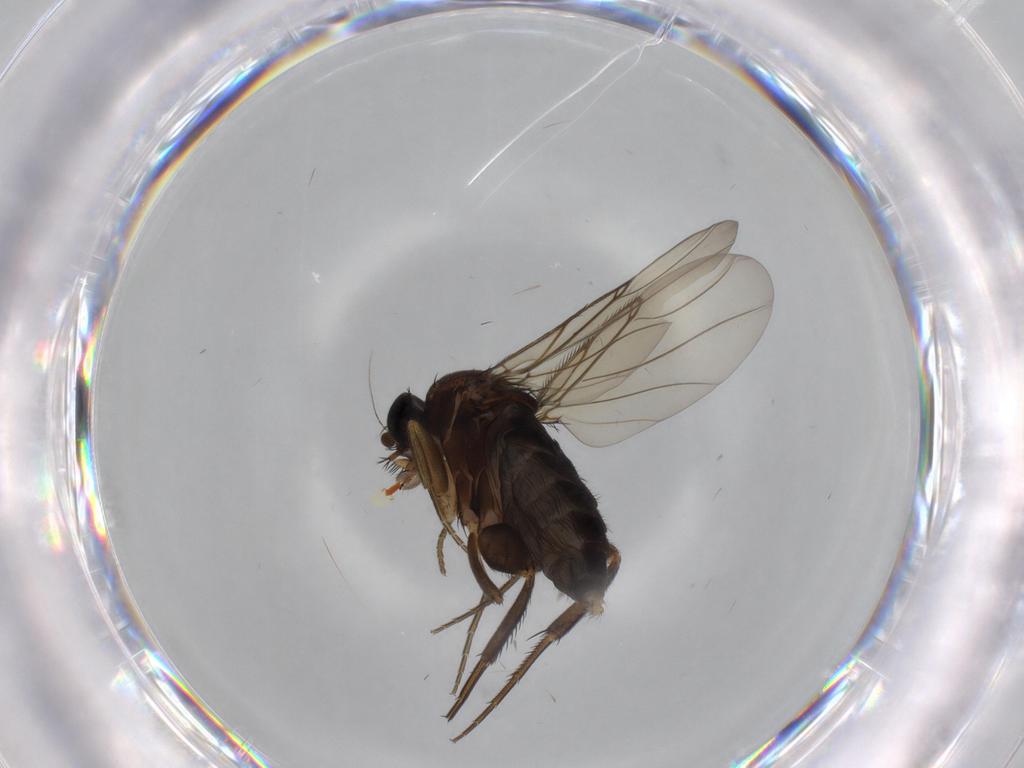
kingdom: Animalia
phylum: Arthropoda
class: Insecta
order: Diptera
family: Phoridae
